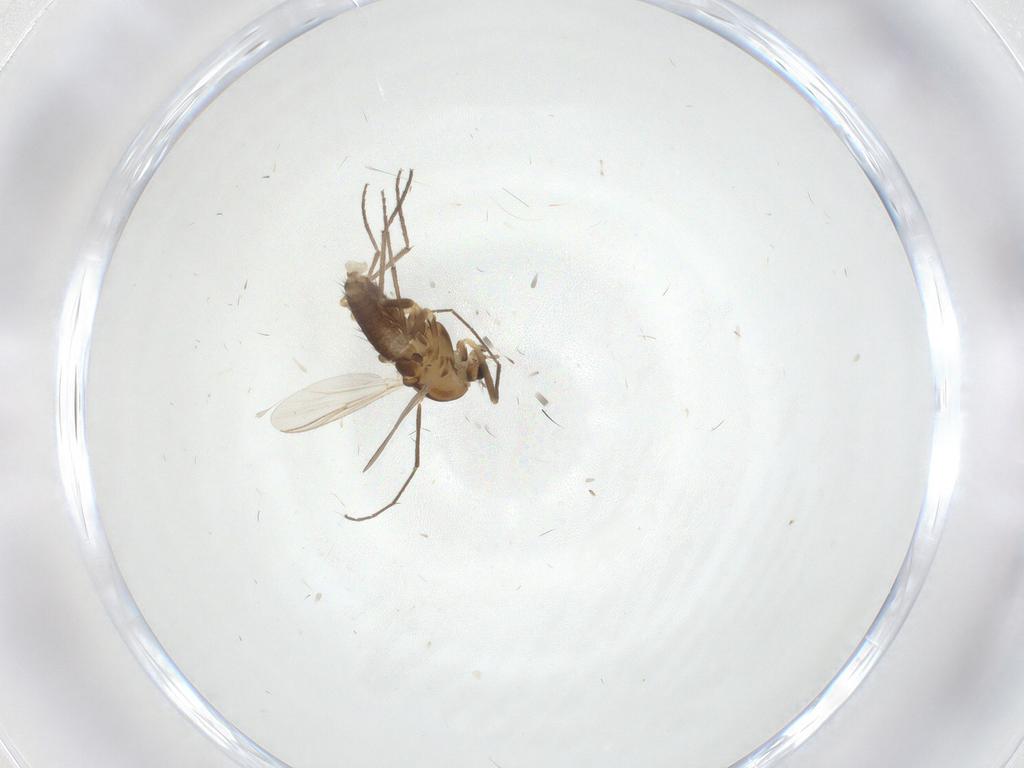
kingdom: Animalia
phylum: Arthropoda
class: Insecta
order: Diptera
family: Chironomidae
